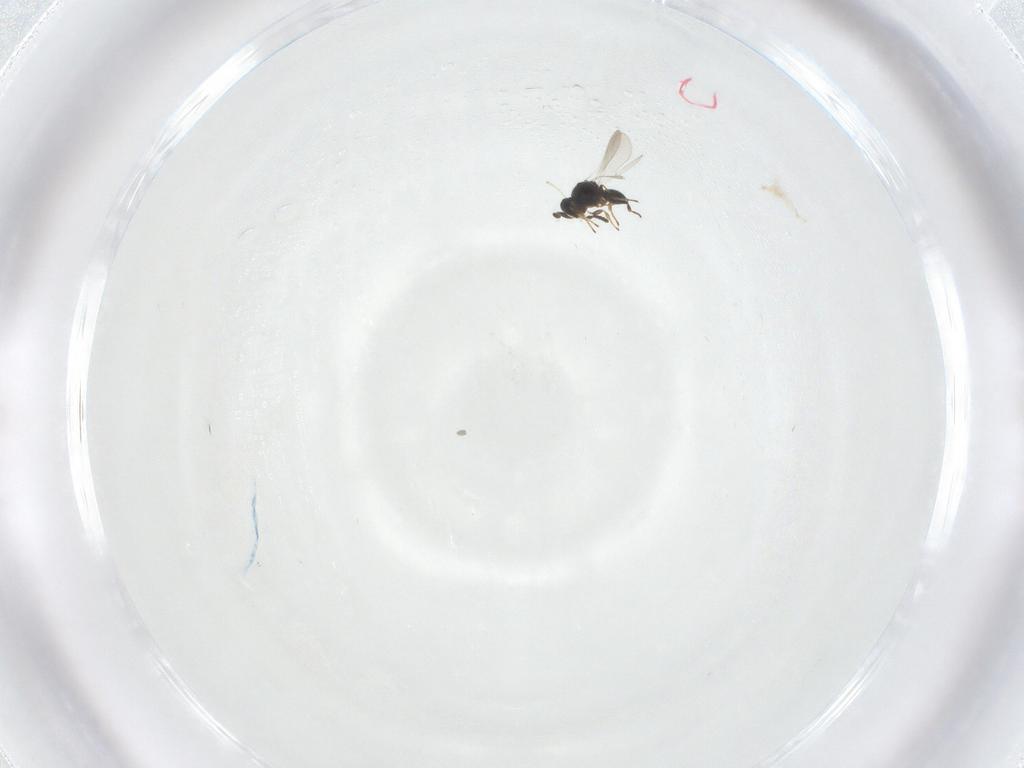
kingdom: Animalia
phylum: Arthropoda
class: Insecta
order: Diptera
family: Cecidomyiidae
